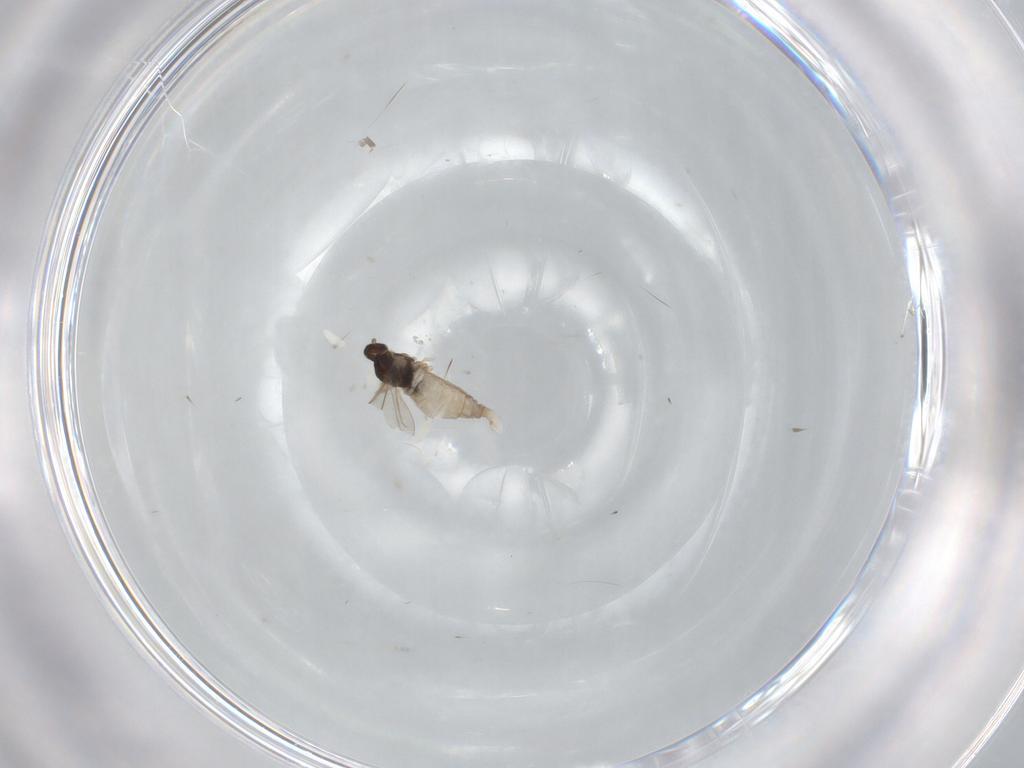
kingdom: Animalia
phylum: Arthropoda
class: Insecta
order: Diptera
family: Cecidomyiidae
